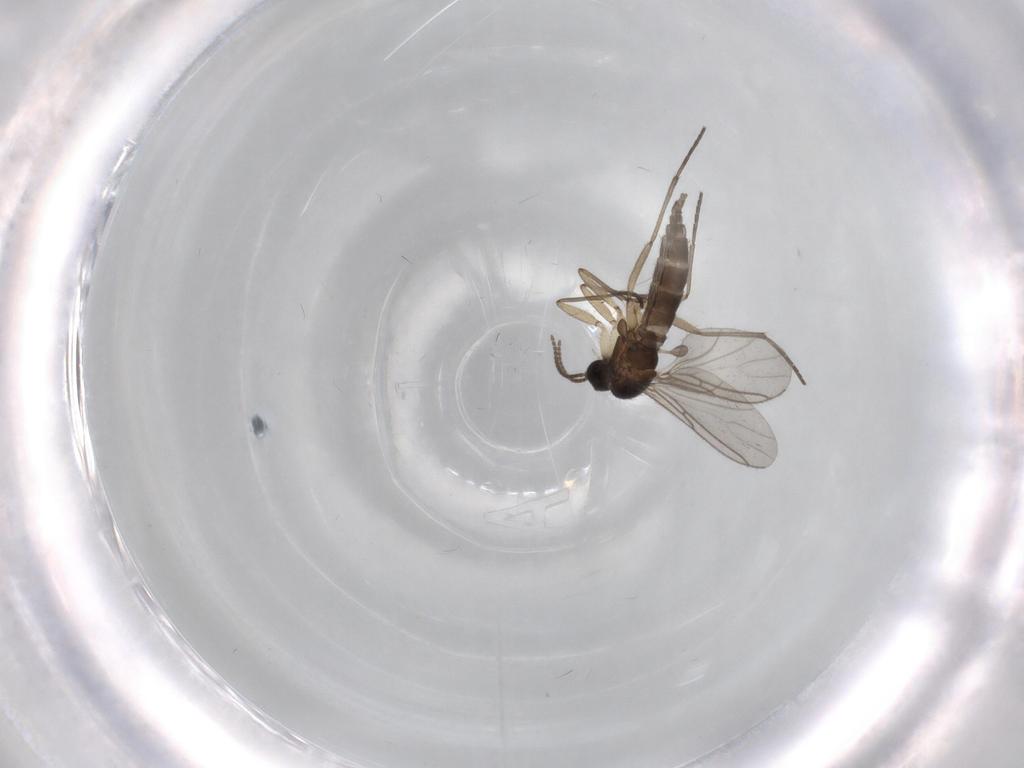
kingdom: Animalia
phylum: Arthropoda
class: Insecta
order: Diptera
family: Sciaridae
